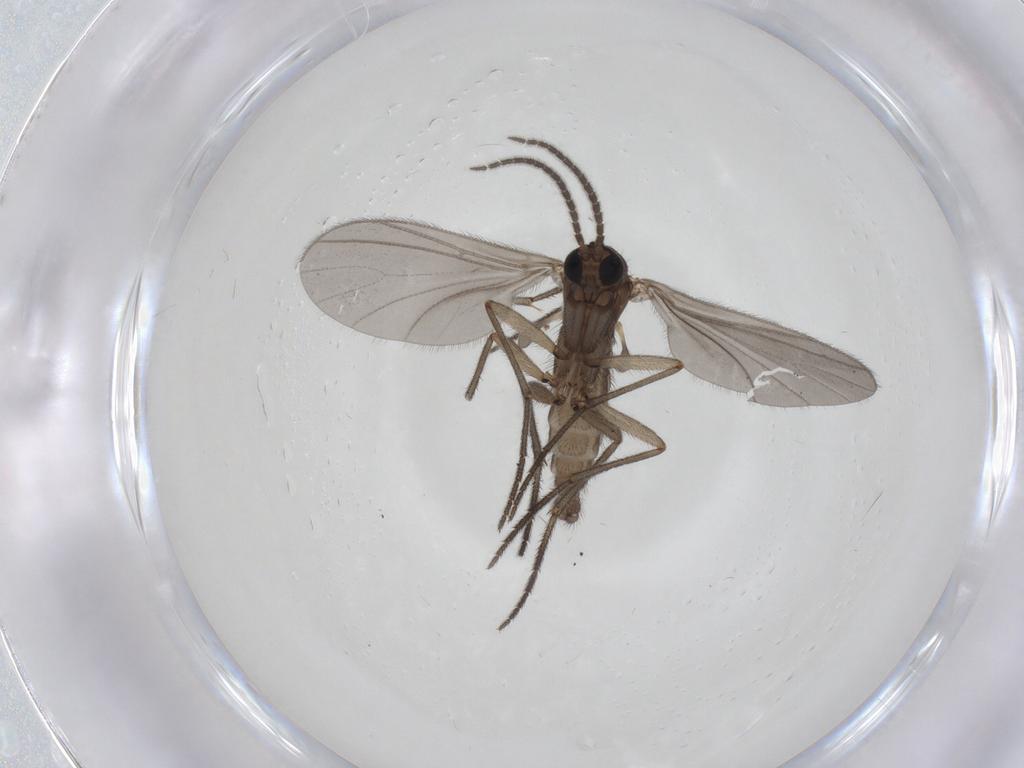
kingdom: Animalia
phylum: Arthropoda
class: Insecta
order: Diptera
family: Sciaridae
